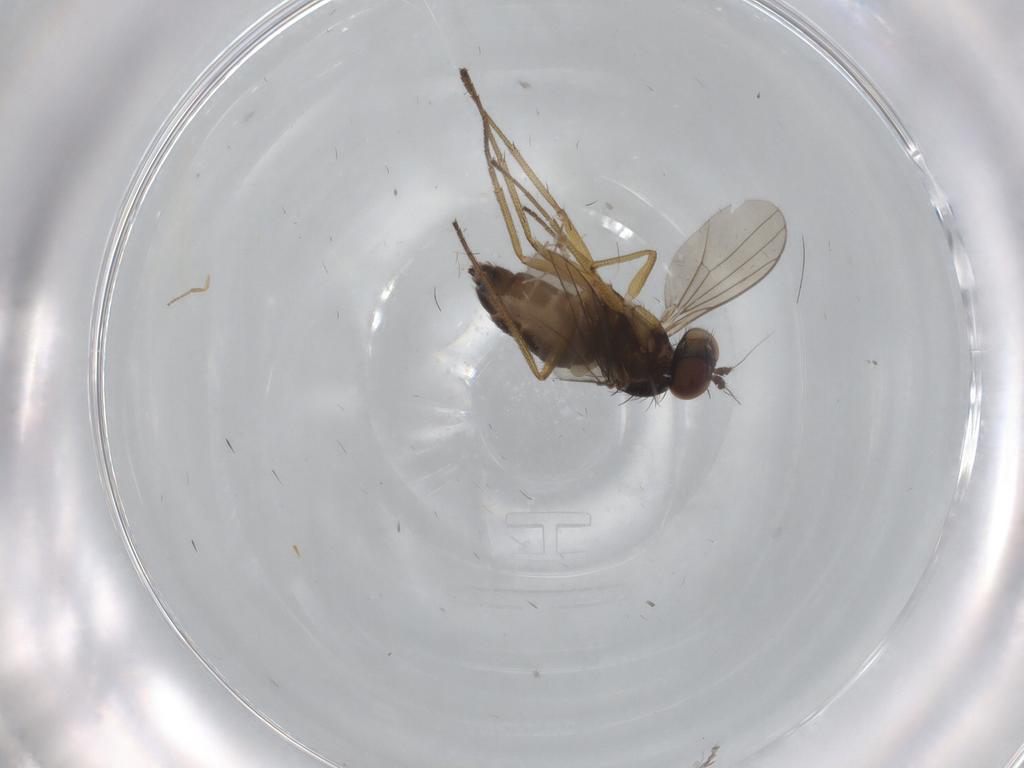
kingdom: Animalia
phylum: Arthropoda
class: Insecta
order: Diptera
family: Dolichopodidae
